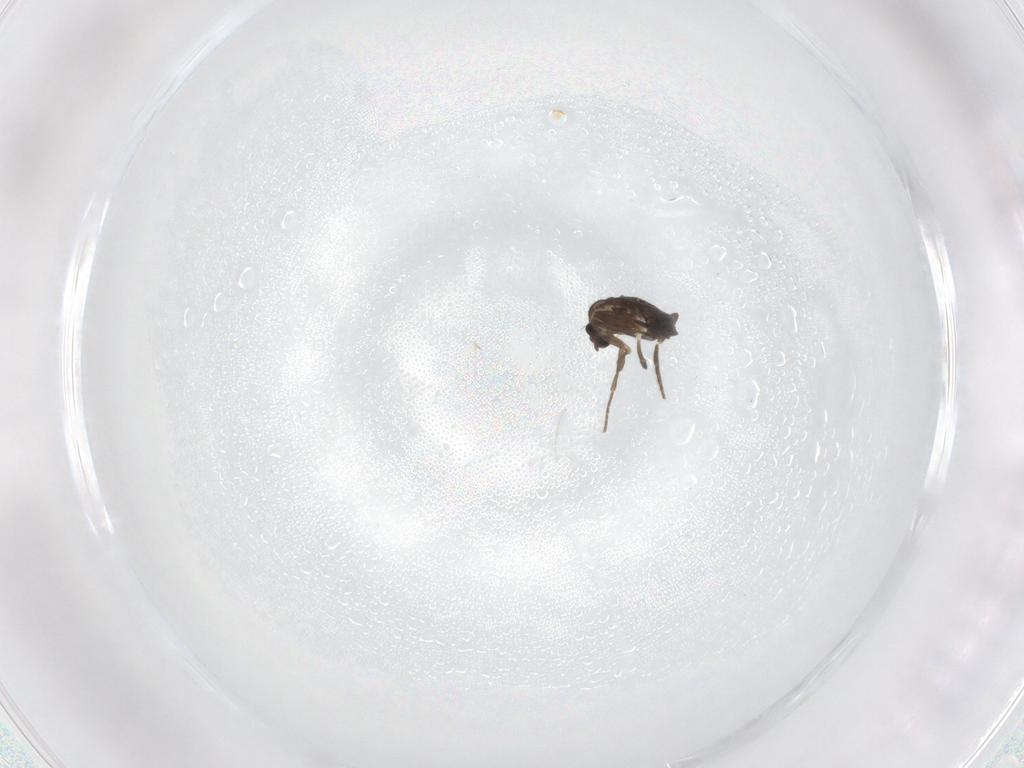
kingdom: Animalia
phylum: Arthropoda
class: Insecta
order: Diptera
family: Phoridae
